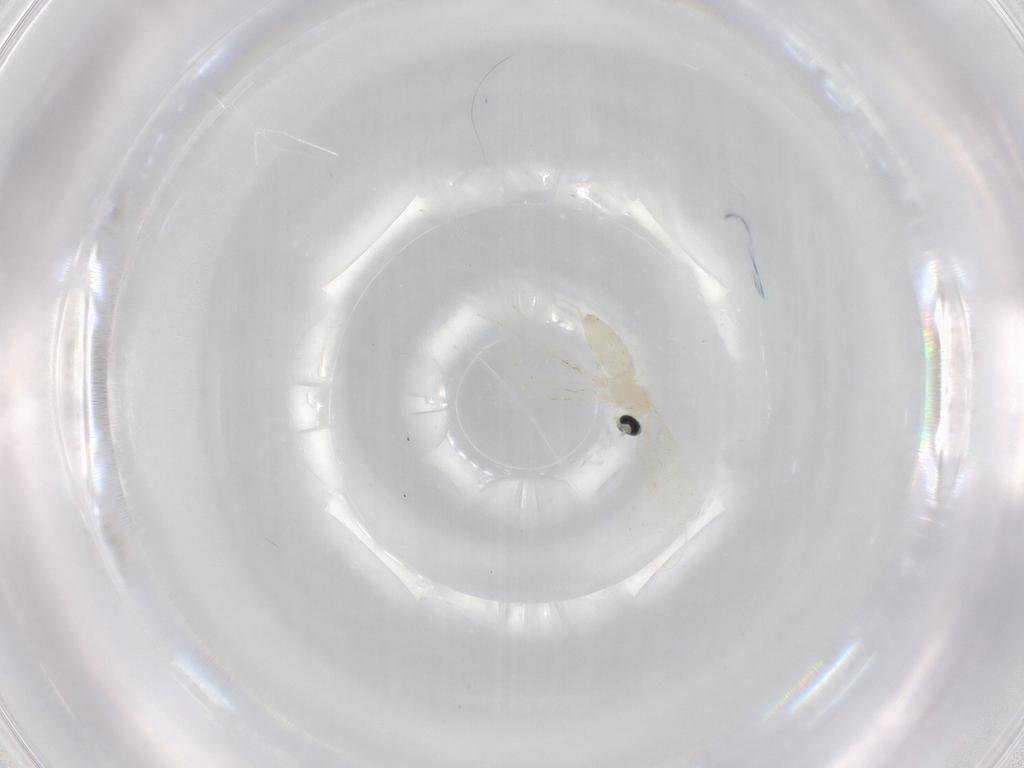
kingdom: Animalia
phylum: Arthropoda
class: Insecta
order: Diptera
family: Cecidomyiidae
